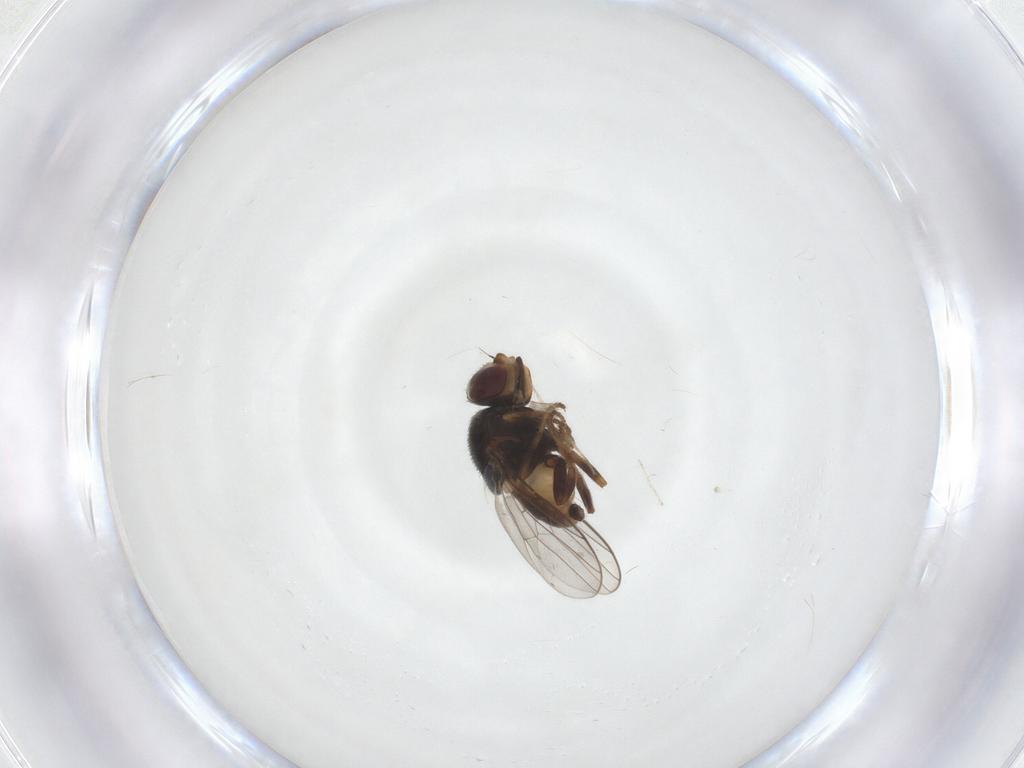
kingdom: Animalia
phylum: Arthropoda
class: Insecta
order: Diptera
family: Chloropidae
